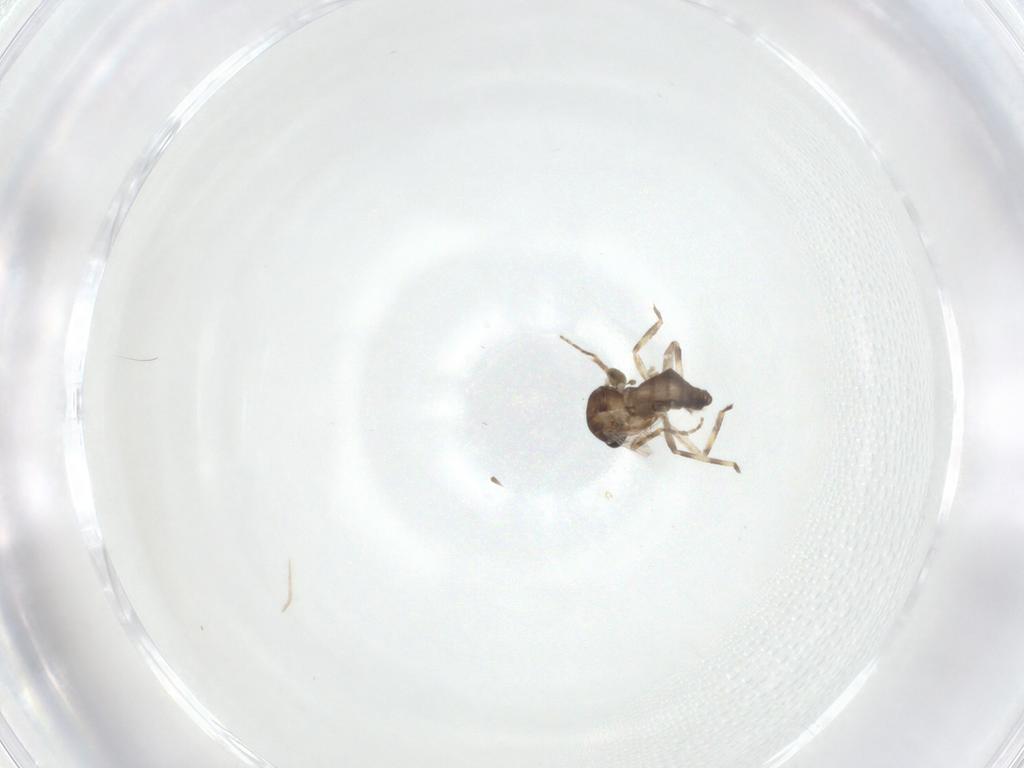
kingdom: Animalia
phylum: Arthropoda
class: Insecta
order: Diptera
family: Ceratopogonidae
